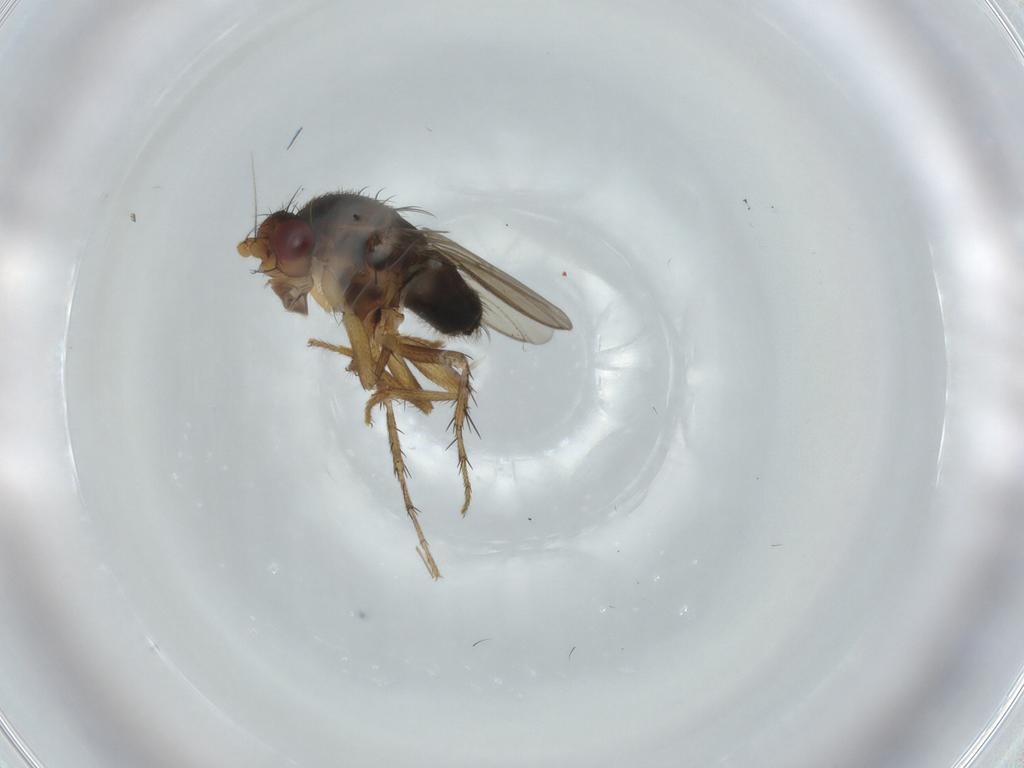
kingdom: Animalia
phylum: Arthropoda
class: Insecta
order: Diptera
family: Sphaeroceridae
